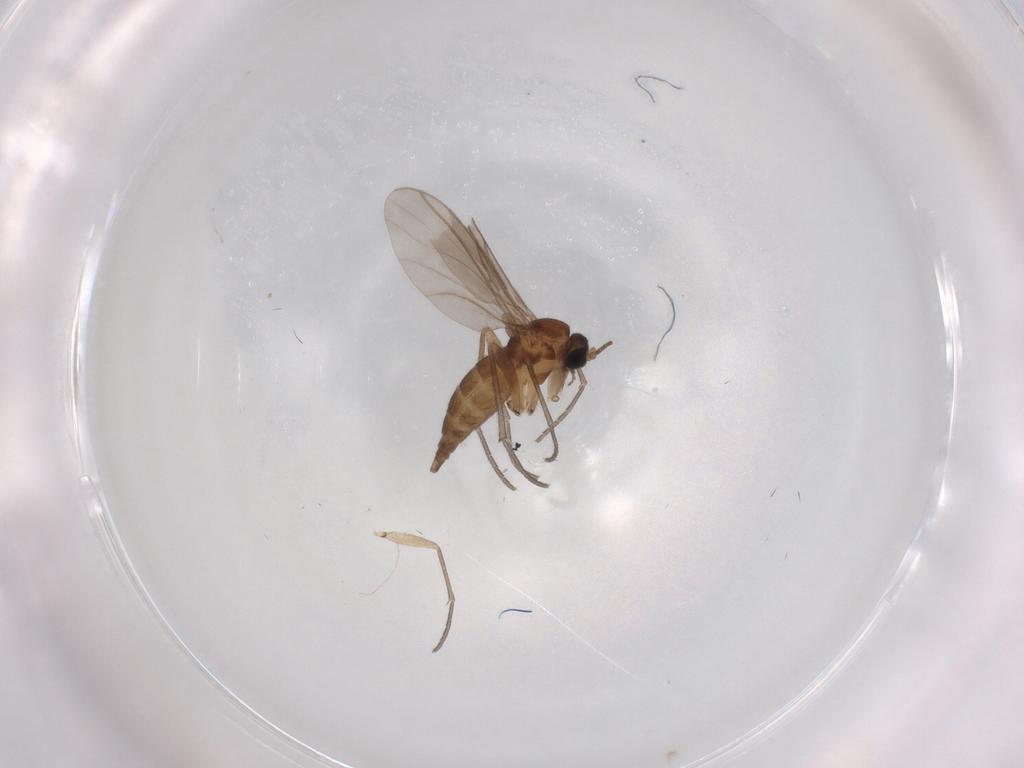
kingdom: Animalia
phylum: Arthropoda
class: Insecta
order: Diptera
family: Sciaridae
